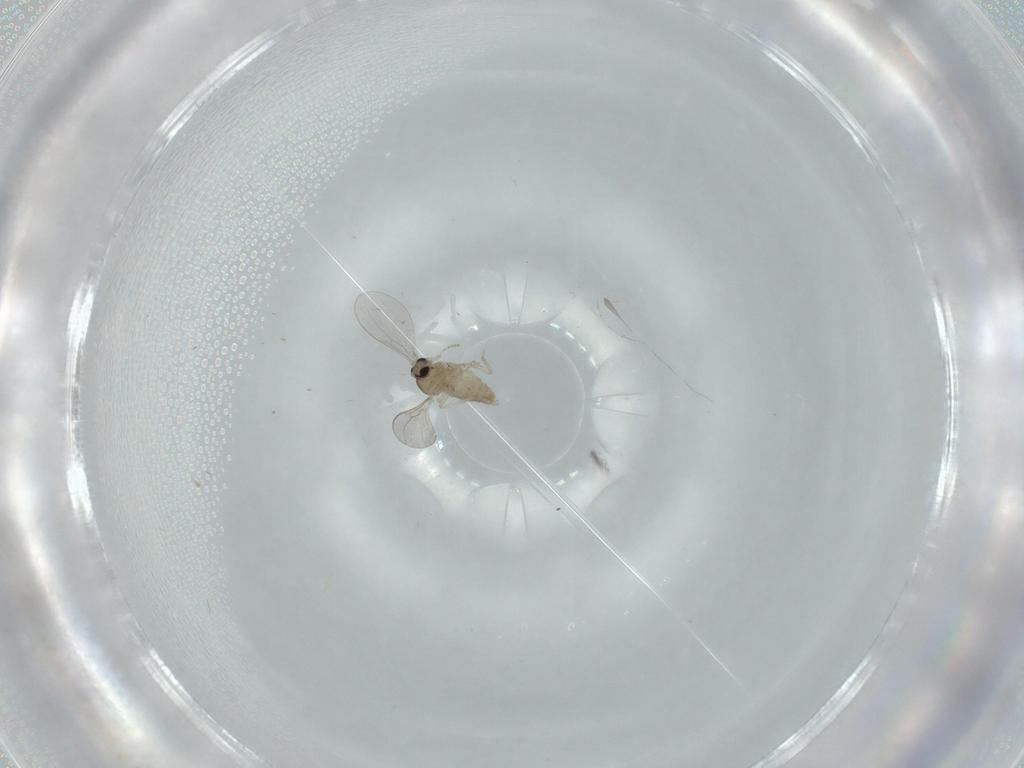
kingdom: Animalia
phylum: Arthropoda
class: Insecta
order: Diptera
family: Cecidomyiidae
